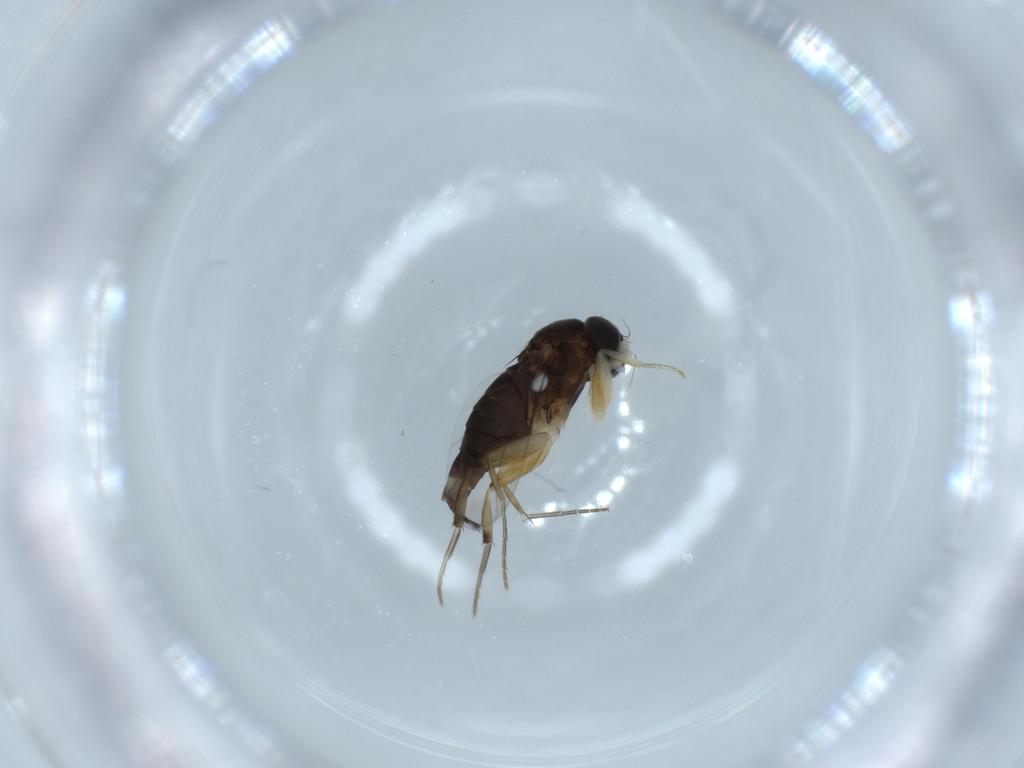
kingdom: Animalia
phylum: Arthropoda
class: Insecta
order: Diptera
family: Phoridae
